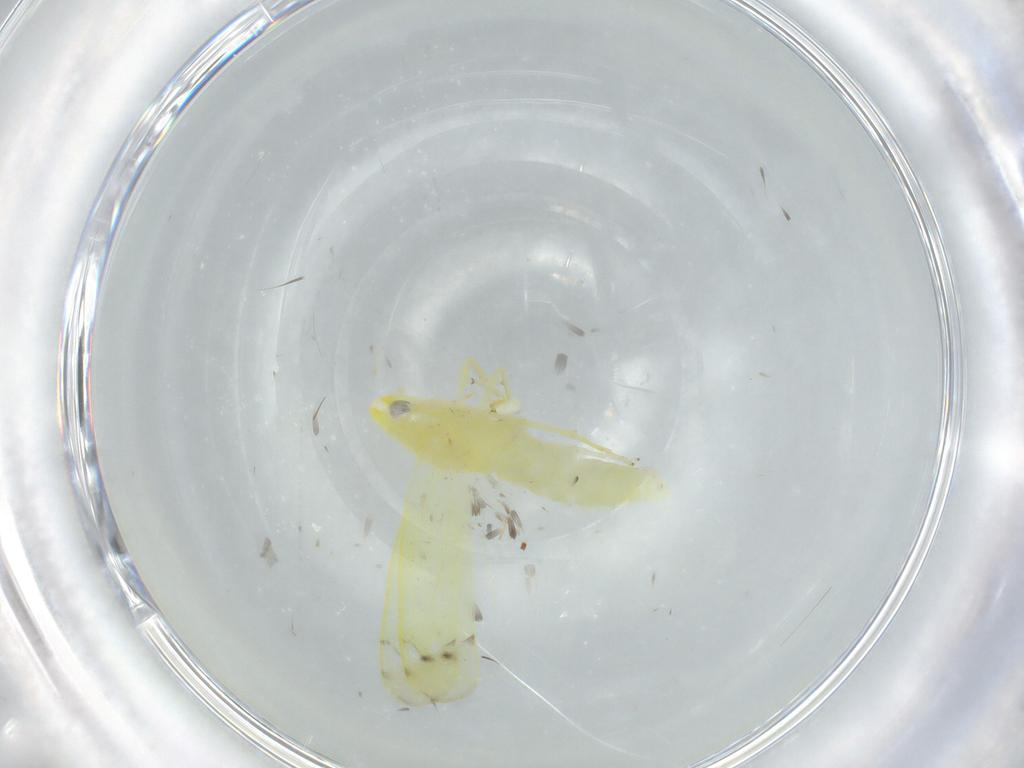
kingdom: Animalia
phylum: Arthropoda
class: Insecta
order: Hemiptera
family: Cicadellidae
